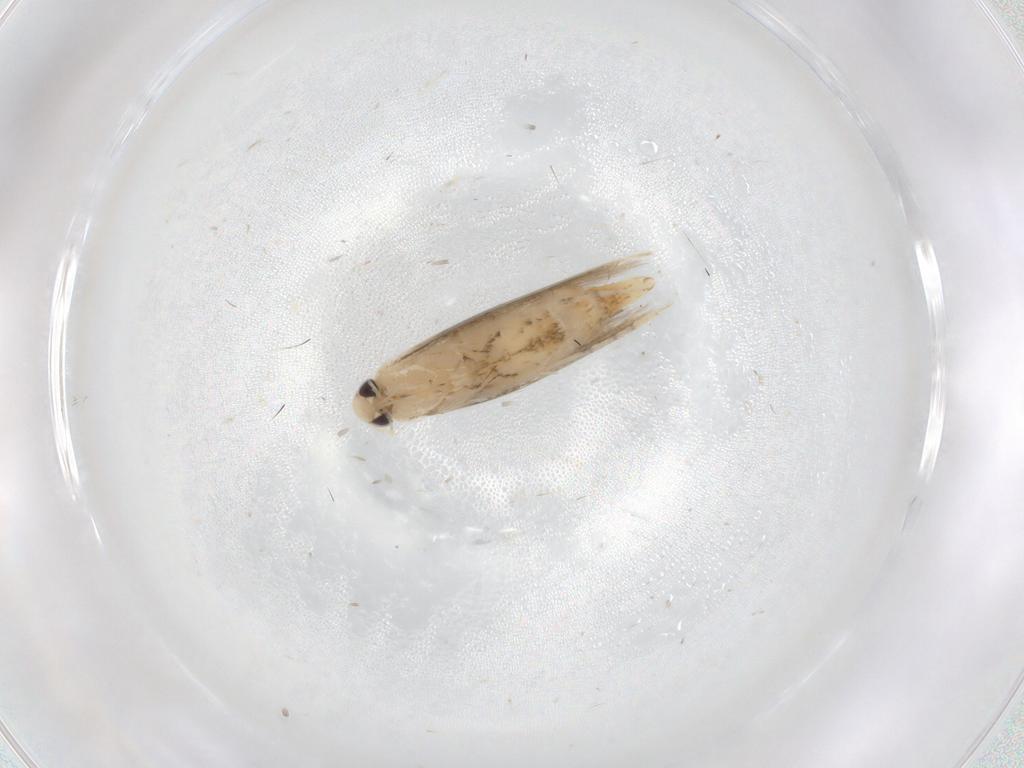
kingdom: Animalia
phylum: Arthropoda
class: Insecta
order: Lepidoptera
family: Gracillariidae
